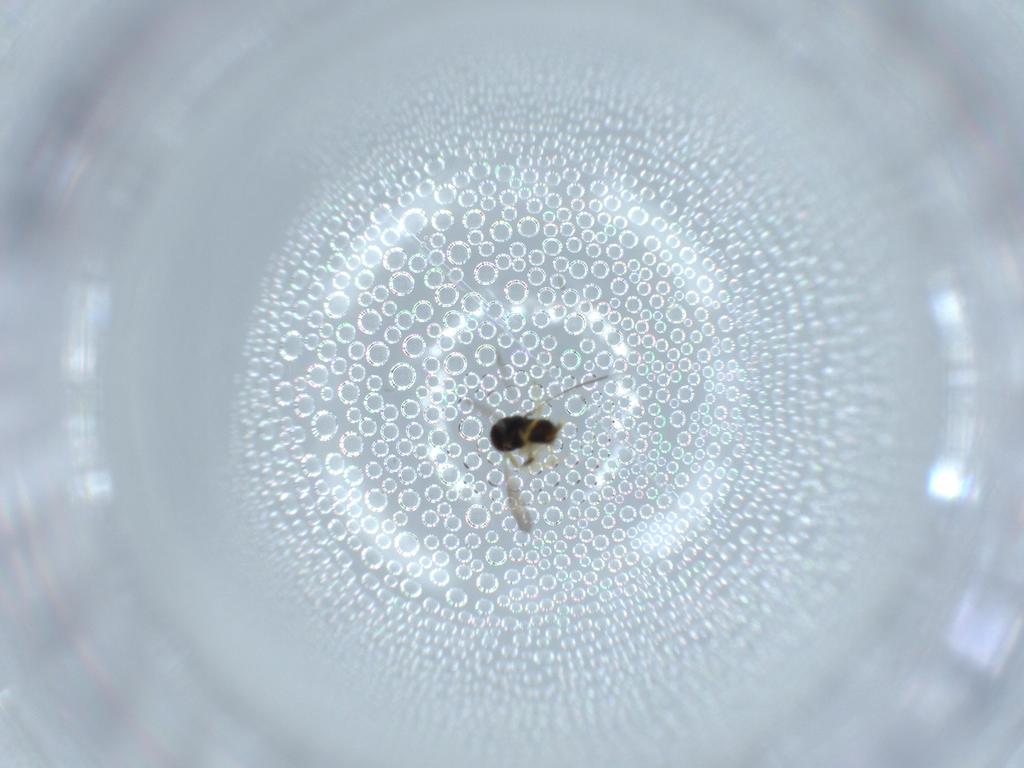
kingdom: Animalia
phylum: Arthropoda
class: Insecta
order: Hymenoptera
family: Aphelinidae
